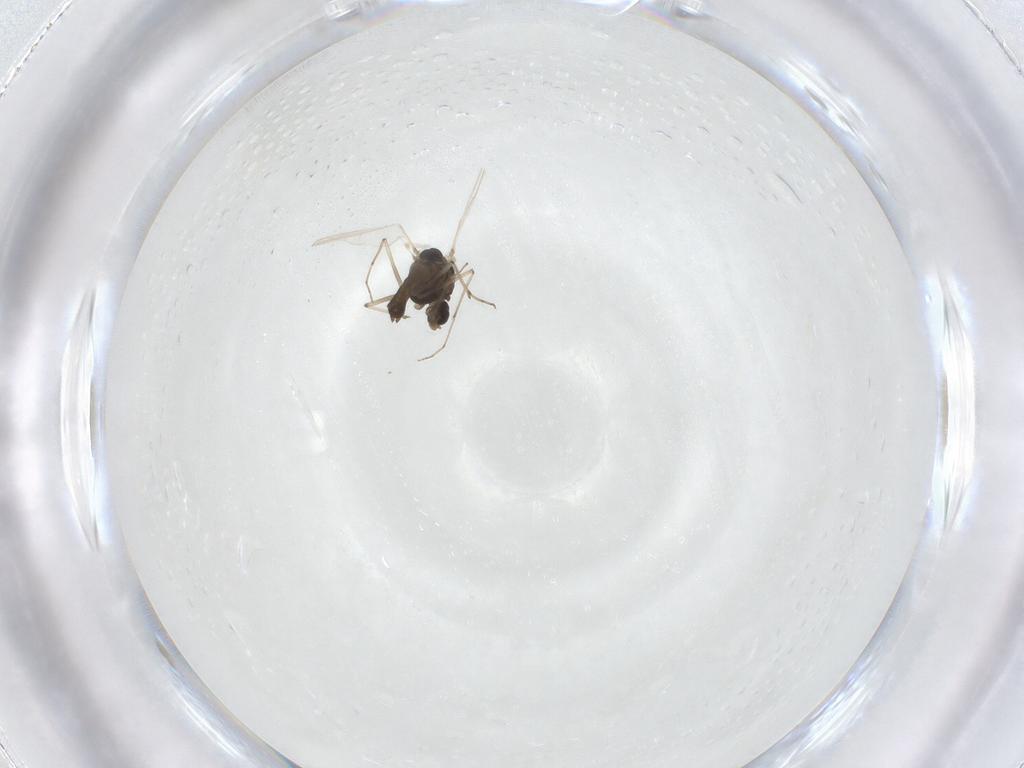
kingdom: Animalia
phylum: Arthropoda
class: Insecta
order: Diptera
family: Chironomidae
